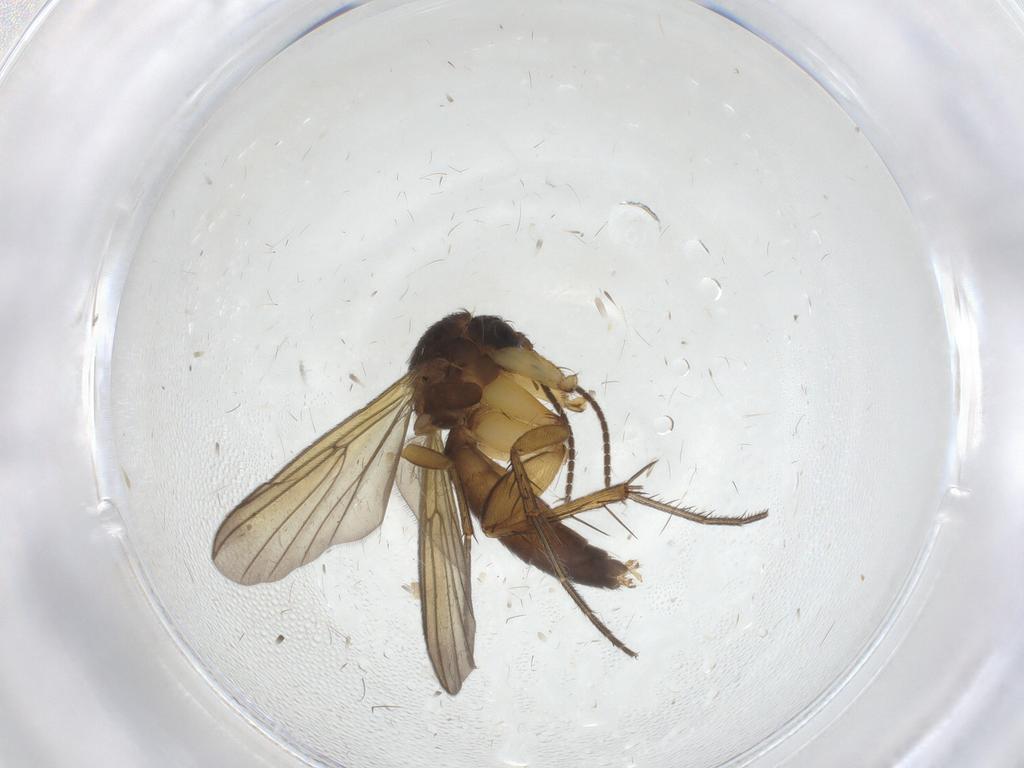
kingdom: Animalia
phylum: Arthropoda
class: Insecta
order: Diptera
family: Mycetophilidae
